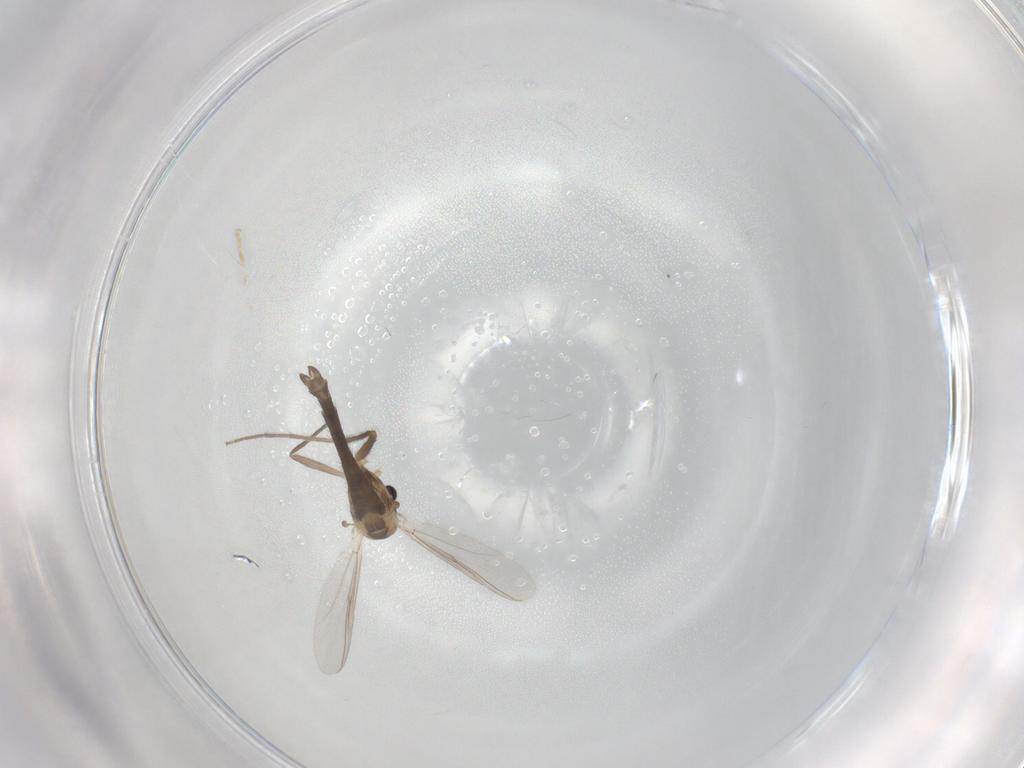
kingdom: Animalia
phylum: Arthropoda
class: Insecta
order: Diptera
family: Chironomidae
